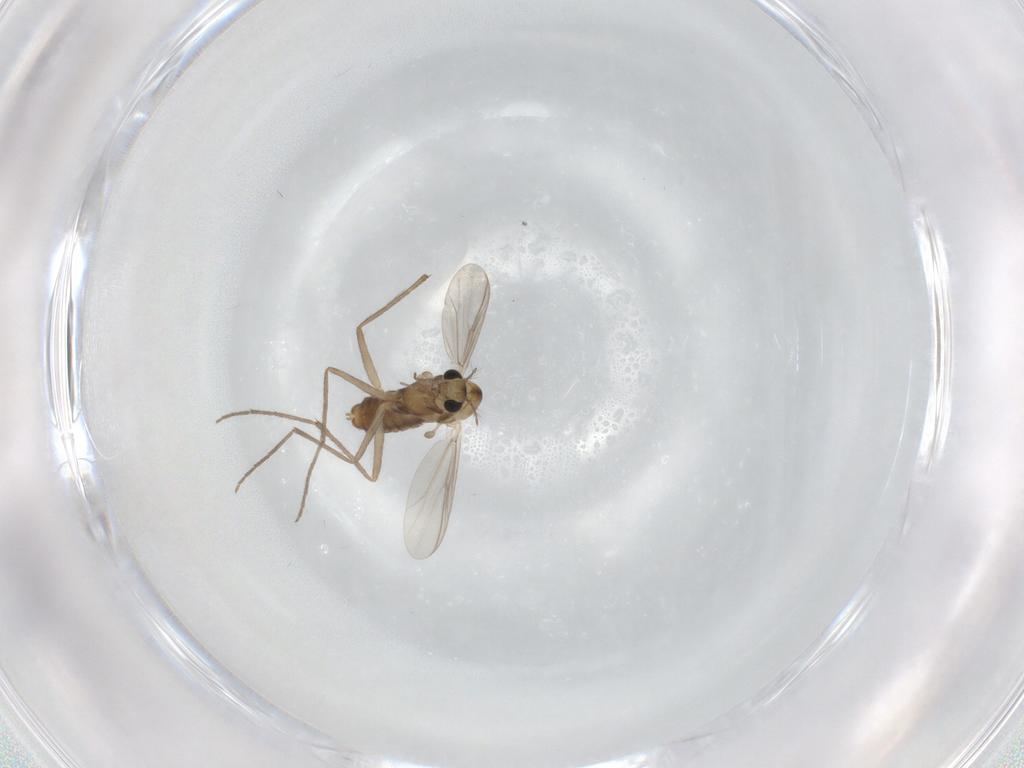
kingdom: Animalia
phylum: Arthropoda
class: Insecta
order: Diptera
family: Chironomidae
